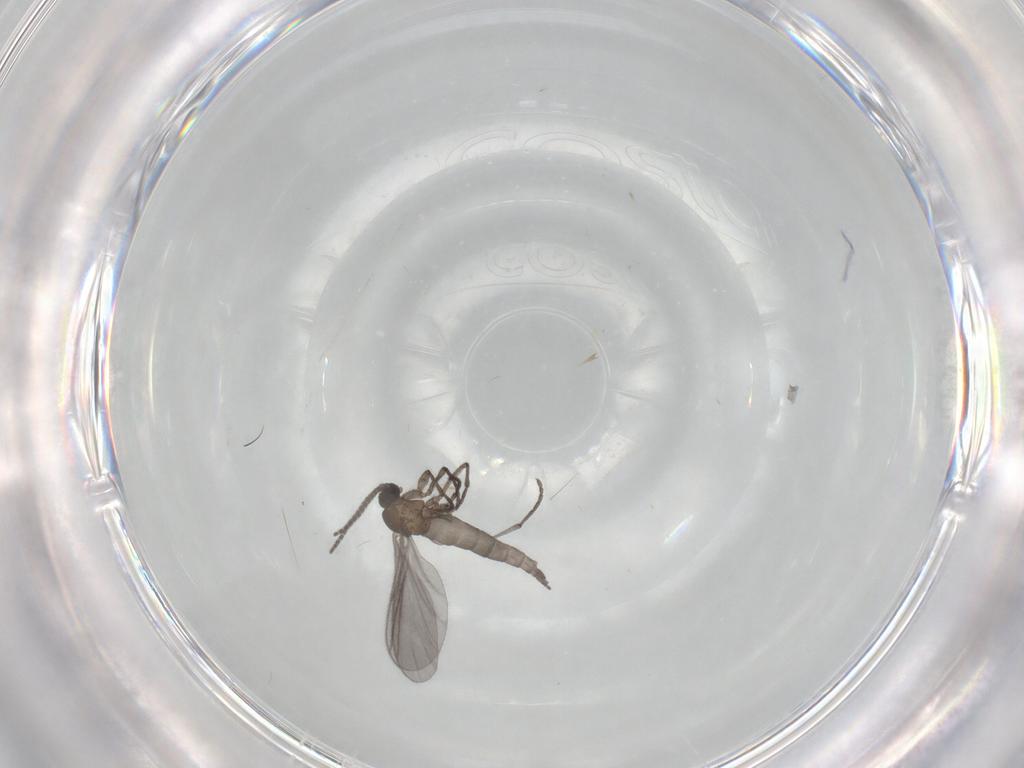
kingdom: Animalia
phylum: Arthropoda
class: Insecta
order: Diptera
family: Sciaridae
